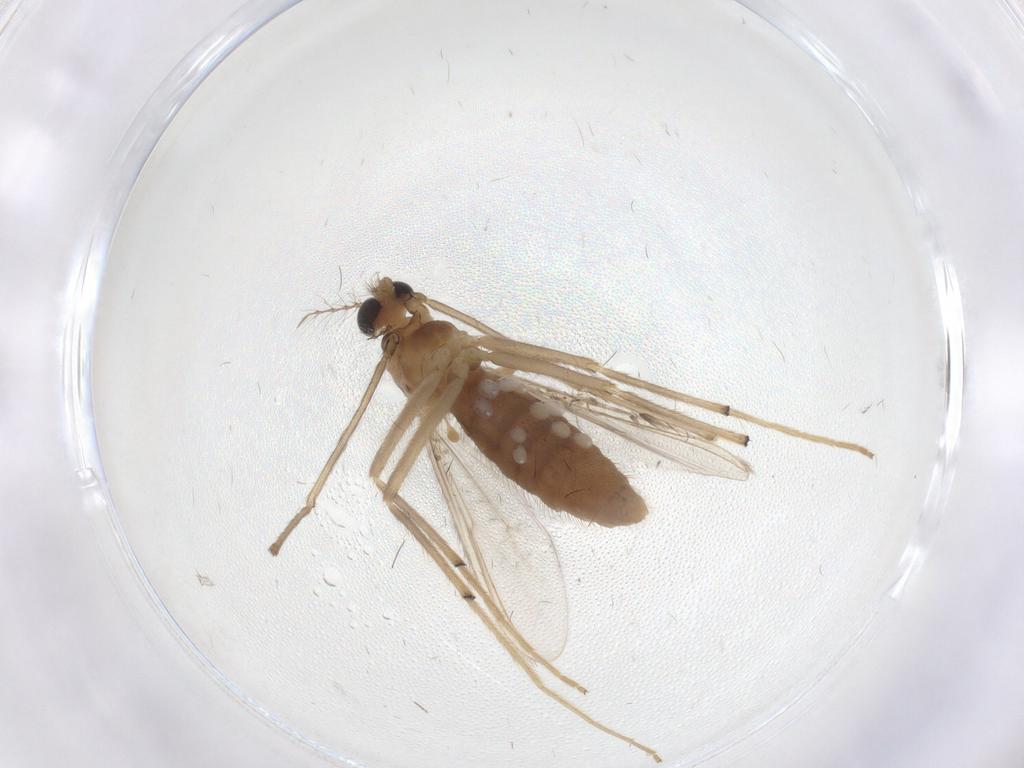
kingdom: Animalia
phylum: Arthropoda
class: Insecta
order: Diptera
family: Chironomidae
